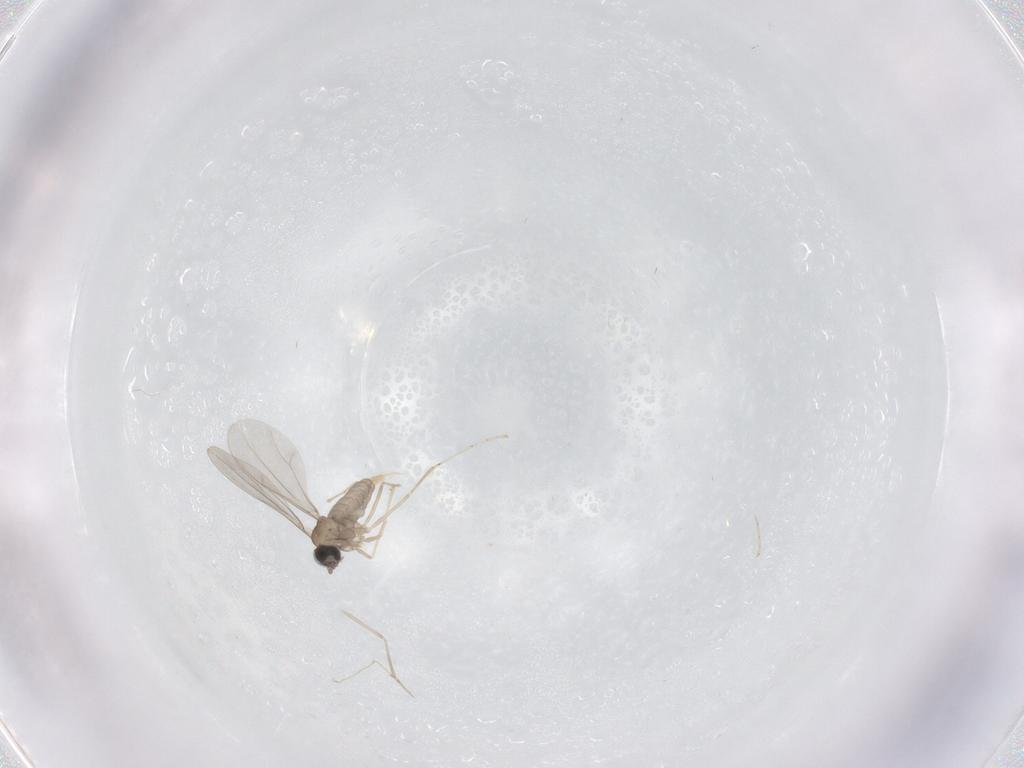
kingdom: Animalia
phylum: Arthropoda
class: Insecta
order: Diptera
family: Cecidomyiidae
